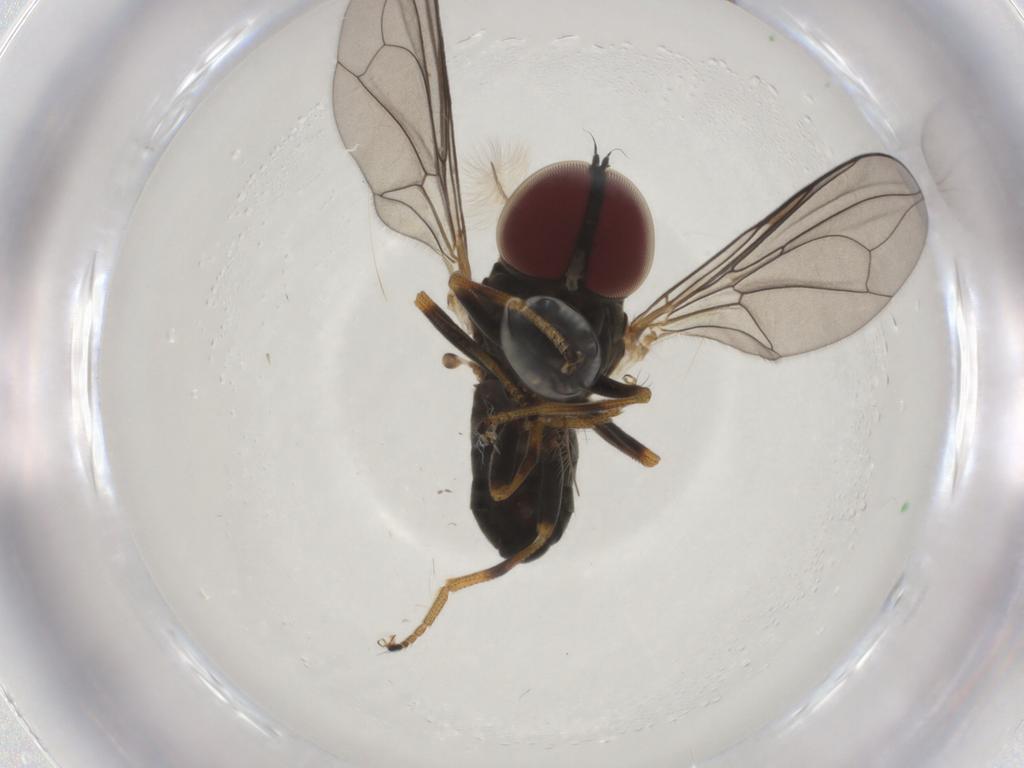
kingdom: Animalia
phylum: Arthropoda
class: Insecta
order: Diptera
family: Pipunculidae
